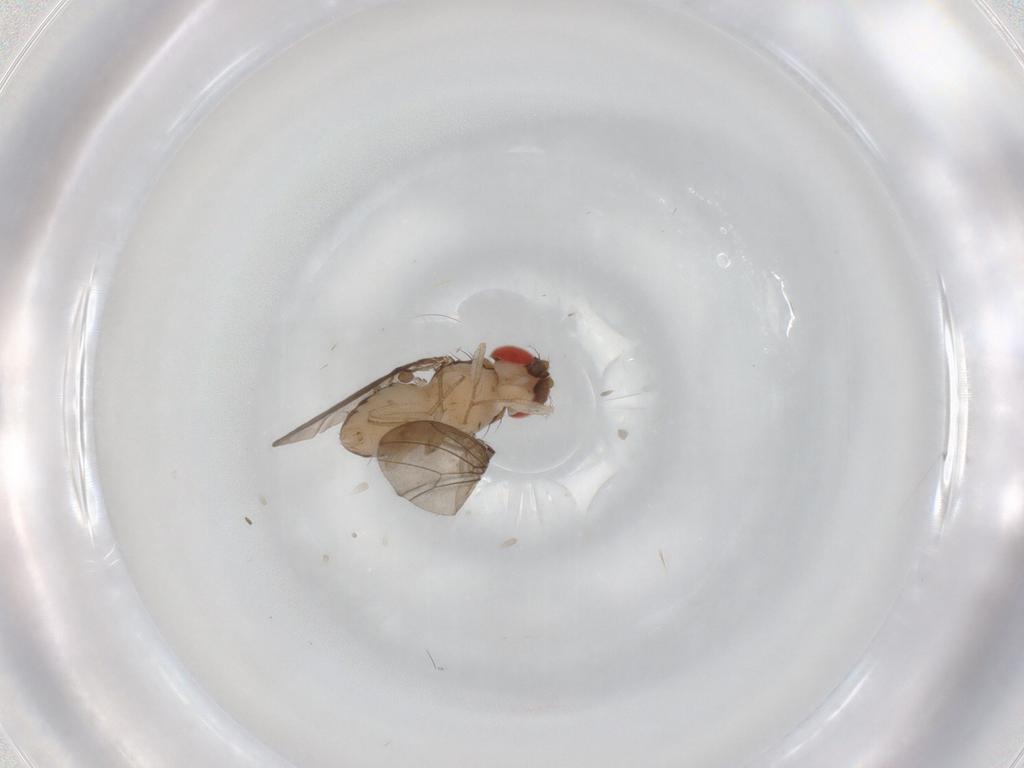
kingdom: Animalia
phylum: Arthropoda
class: Insecta
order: Diptera
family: Drosophilidae
